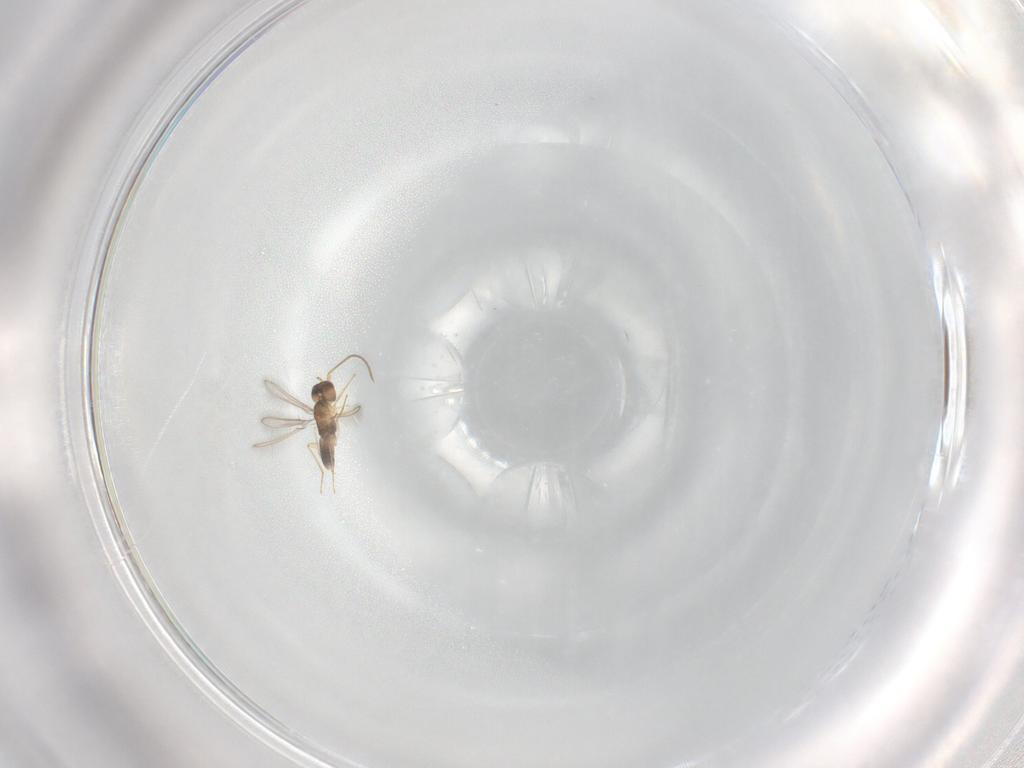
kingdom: Animalia
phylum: Arthropoda
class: Insecta
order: Hymenoptera
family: Mymaridae
